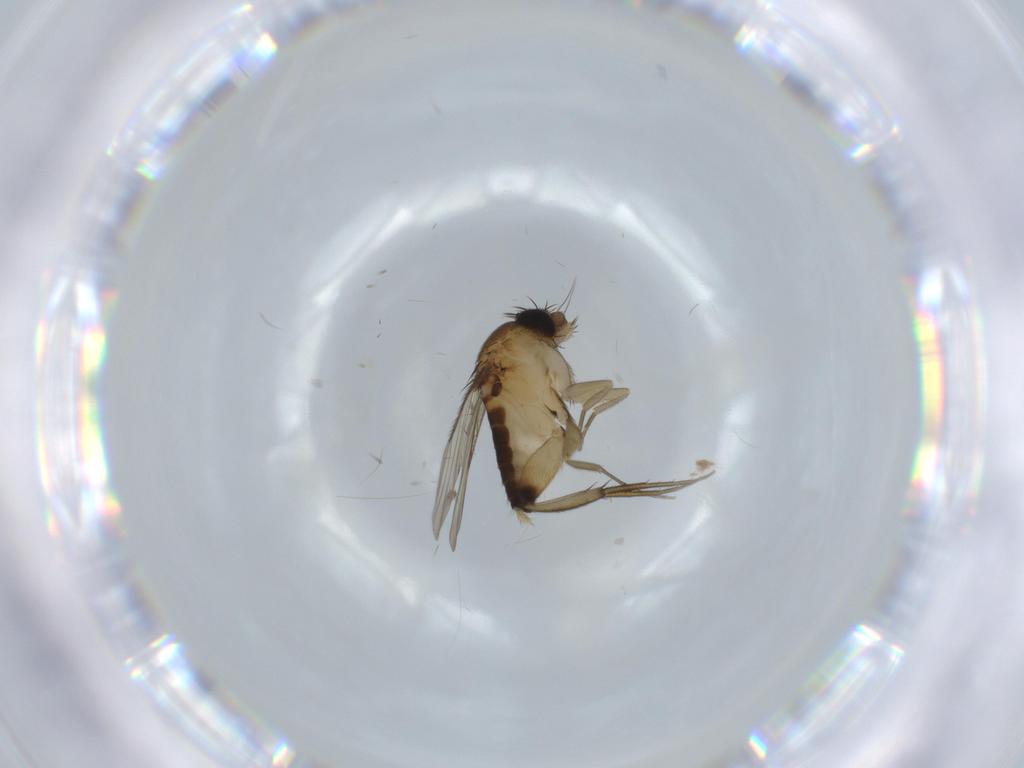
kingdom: Animalia
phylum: Arthropoda
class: Insecta
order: Diptera
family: Phoridae
